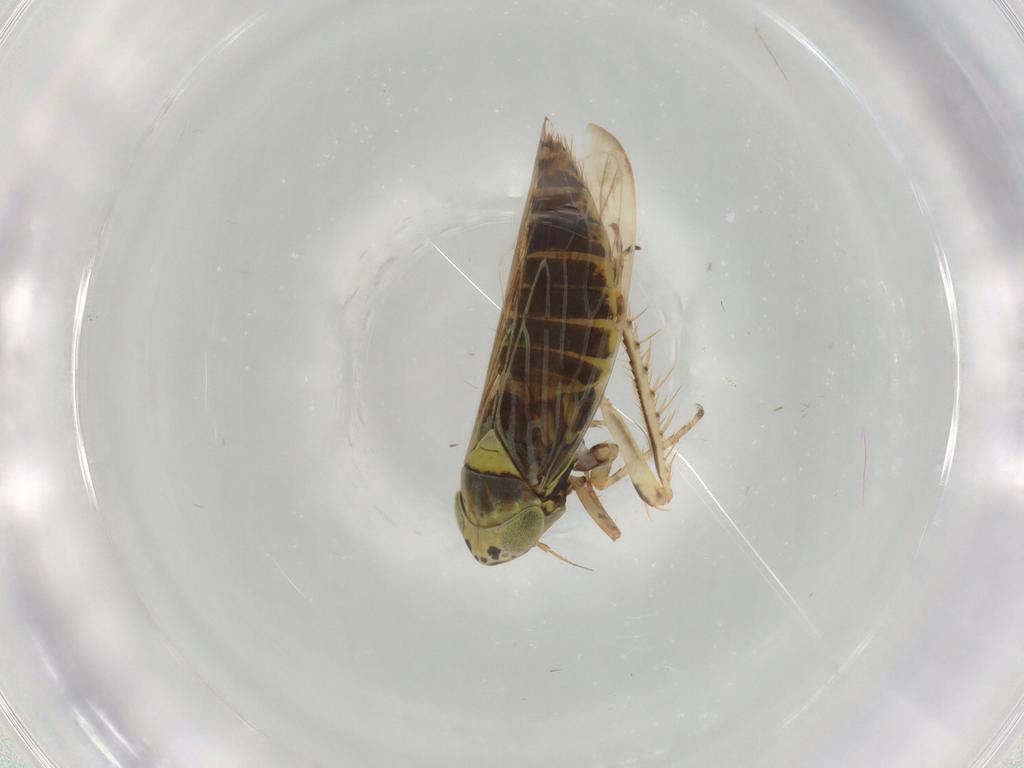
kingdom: Animalia
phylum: Arthropoda
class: Insecta
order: Hemiptera
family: Cicadellidae
